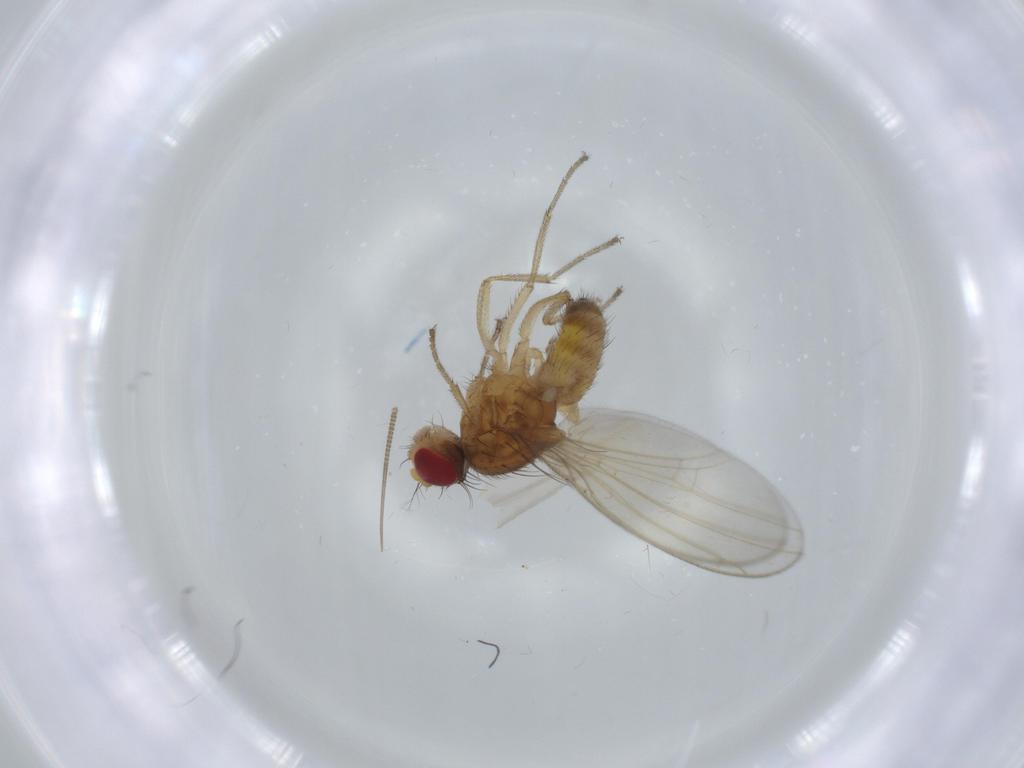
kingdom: Animalia
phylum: Arthropoda
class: Insecta
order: Diptera
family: Drosophilidae
